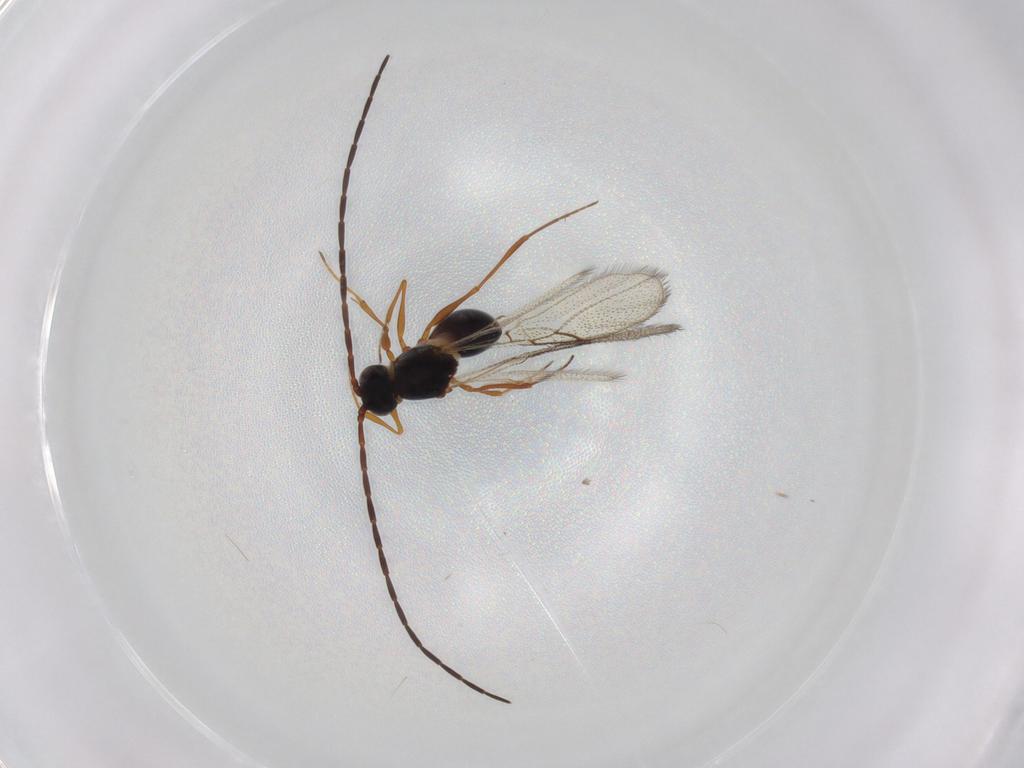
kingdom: Animalia
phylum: Arthropoda
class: Insecta
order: Hymenoptera
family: Figitidae
